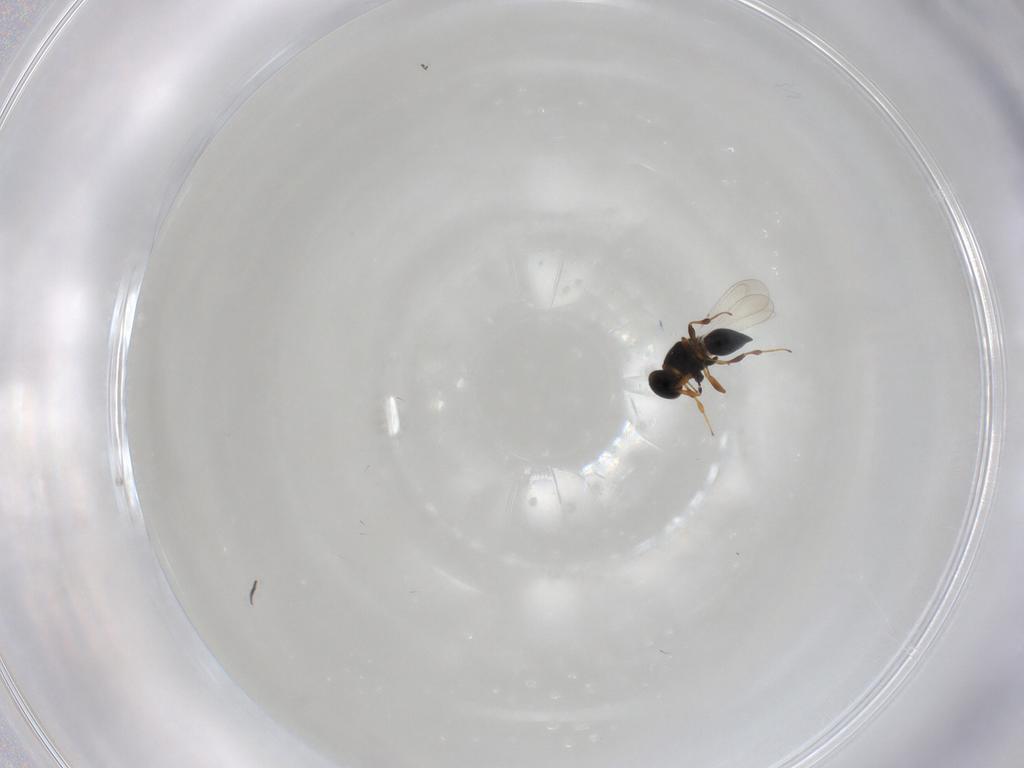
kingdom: Animalia
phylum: Arthropoda
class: Insecta
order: Hymenoptera
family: Platygastridae
